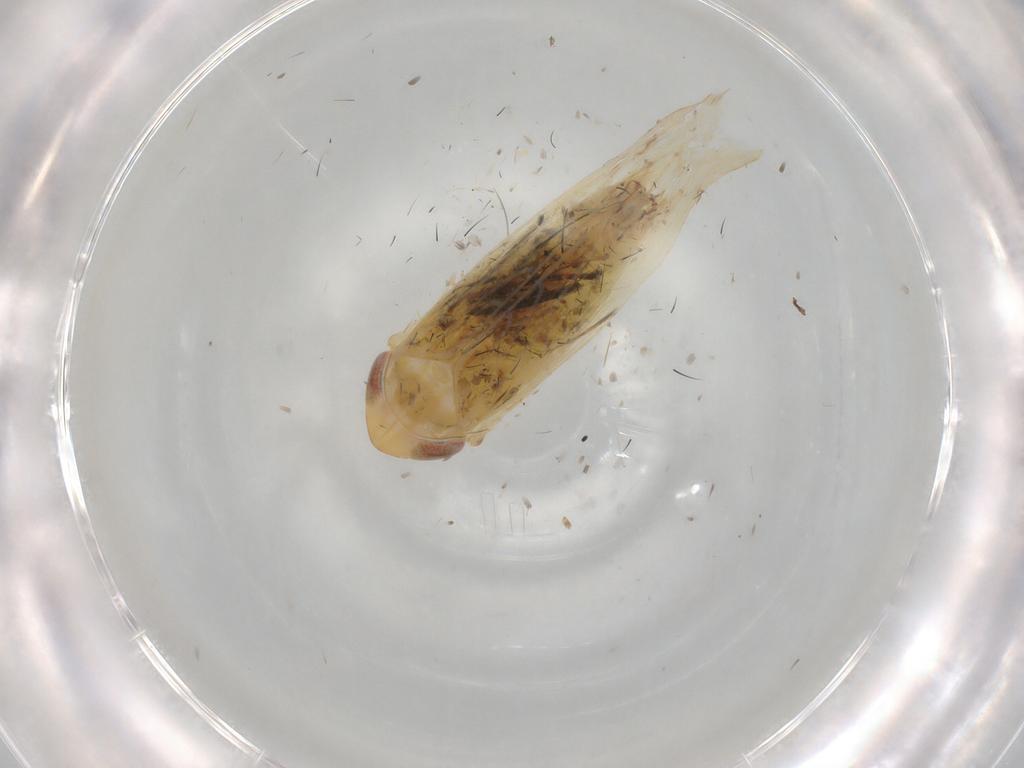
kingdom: Animalia
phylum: Arthropoda
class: Insecta
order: Hemiptera
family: Cicadellidae
